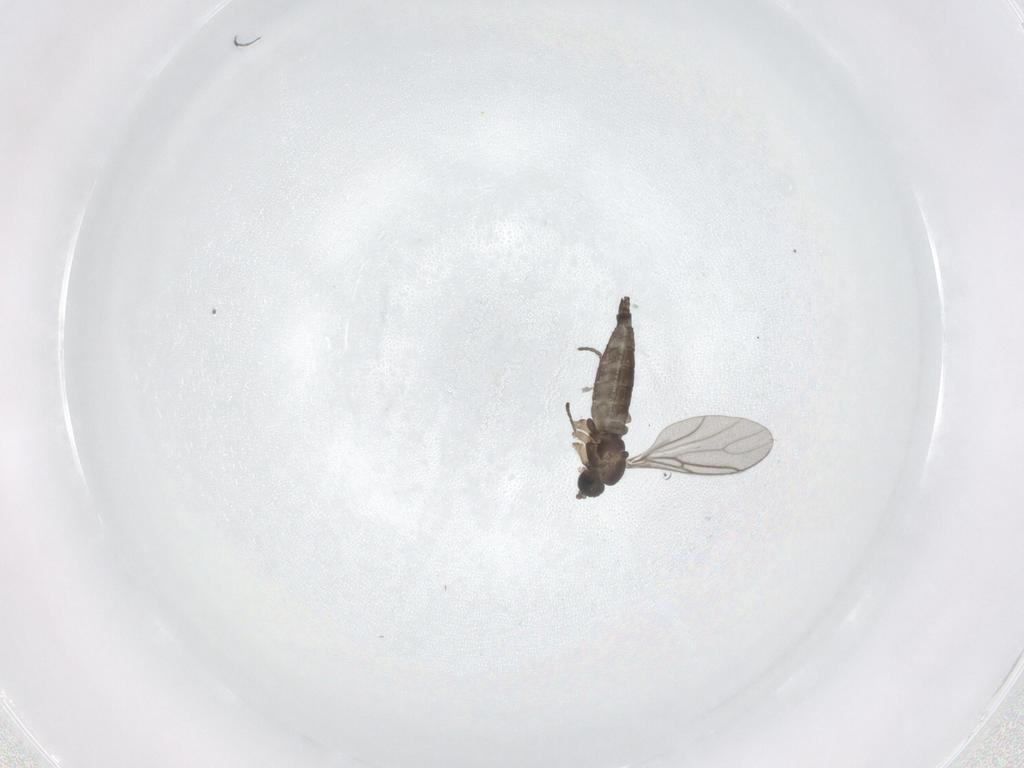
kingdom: Animalia
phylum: Arthropoda
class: Insecta
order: Diptera
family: Sciaridae
